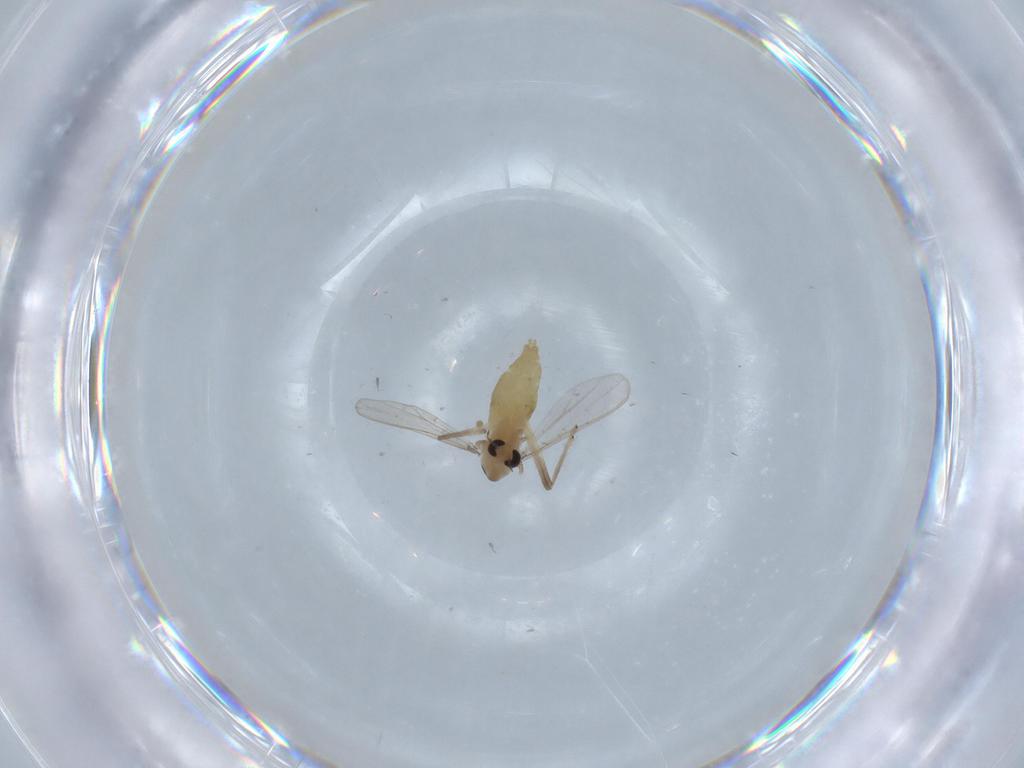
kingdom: Animalia
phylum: Arthropoda
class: Insecta
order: Diptera
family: Chironomidae
